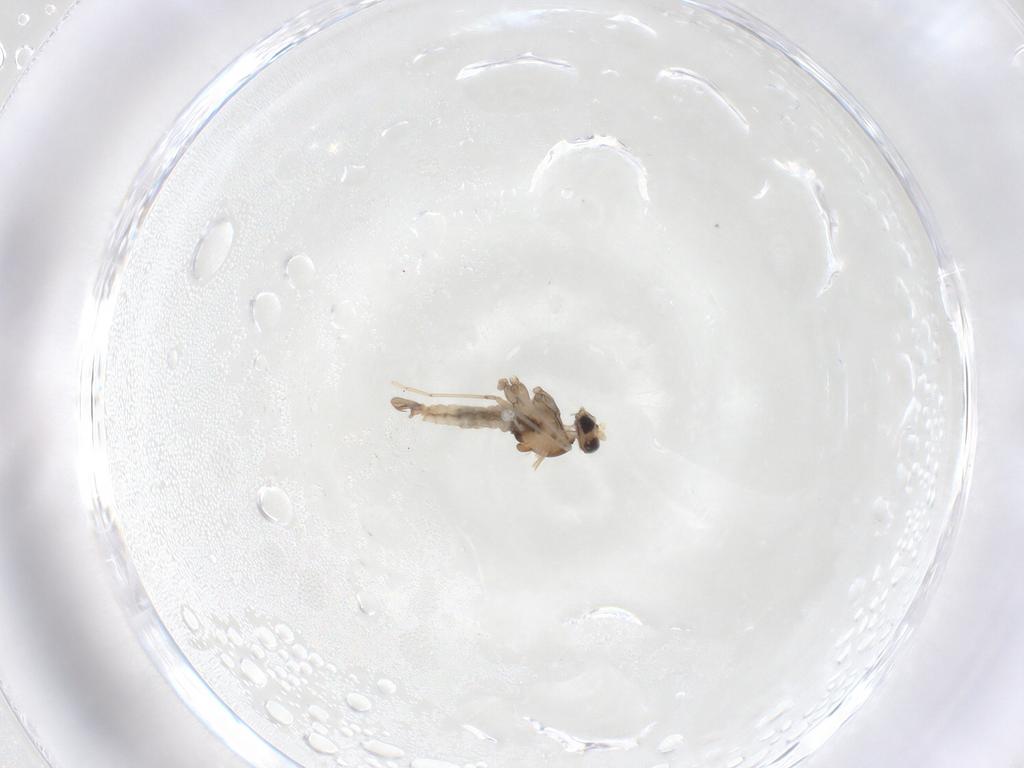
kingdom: Animalia
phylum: Arthropoda
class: Insecta
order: Diptera
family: Cecidomyiidae
